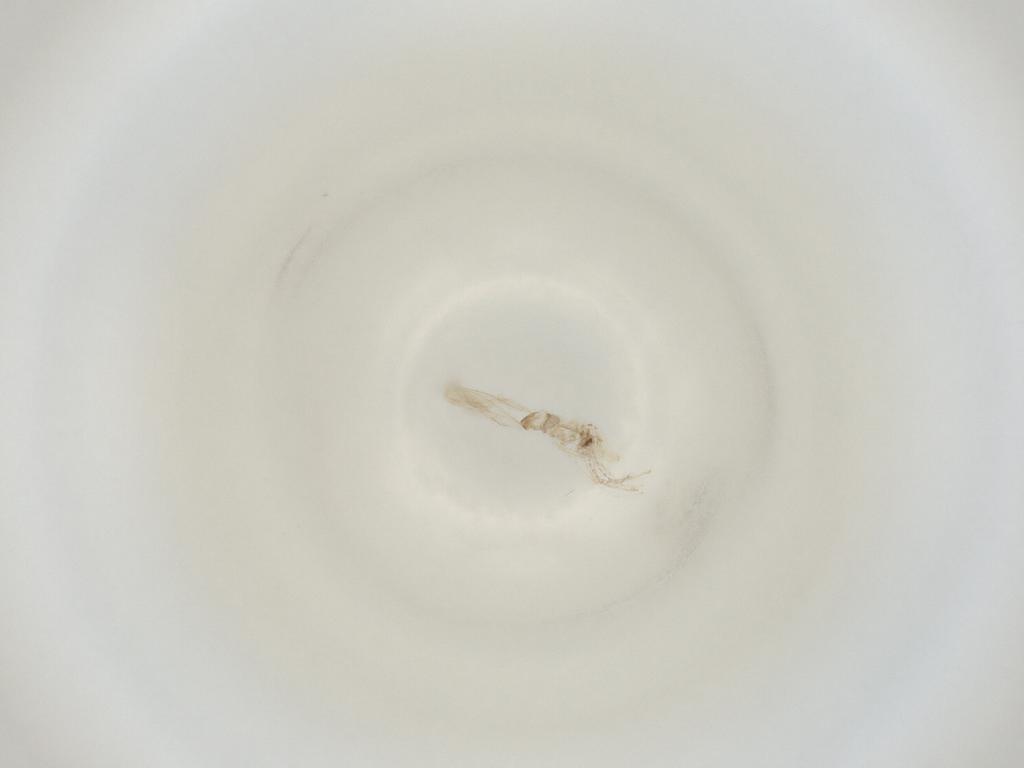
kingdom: Animalia
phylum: Arthropoda
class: Insecta
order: Diptera
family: Cecidomyiidae
